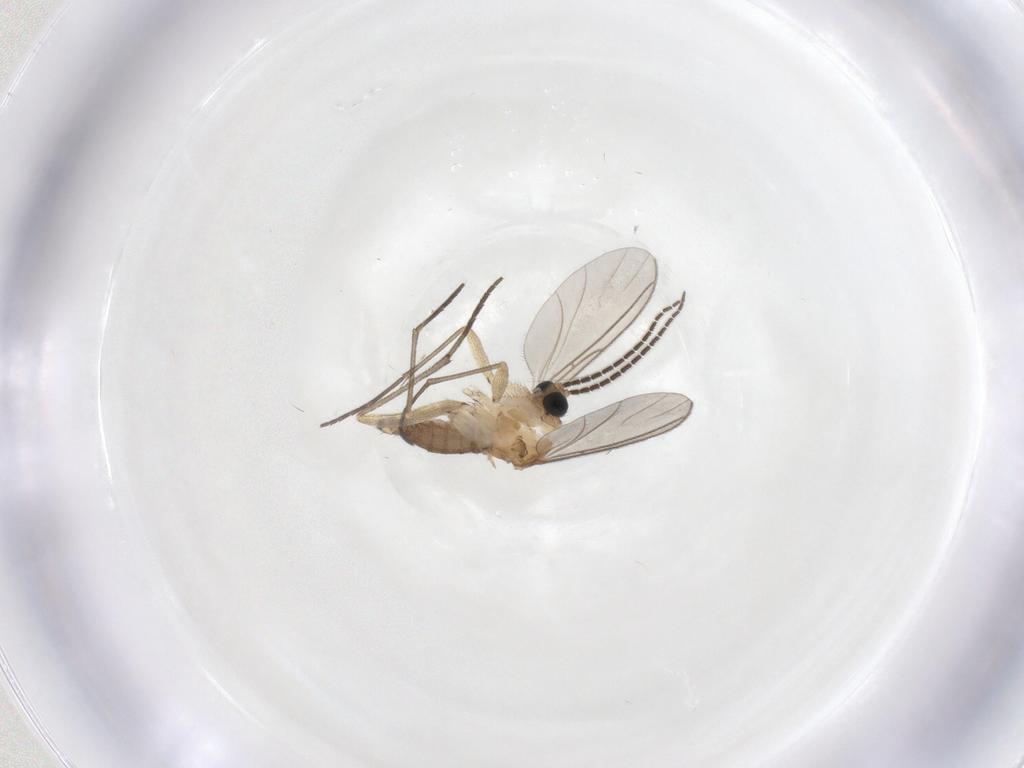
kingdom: Animalia
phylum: Arthropoda
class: Insecta
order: Diptera
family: Sciaridae
